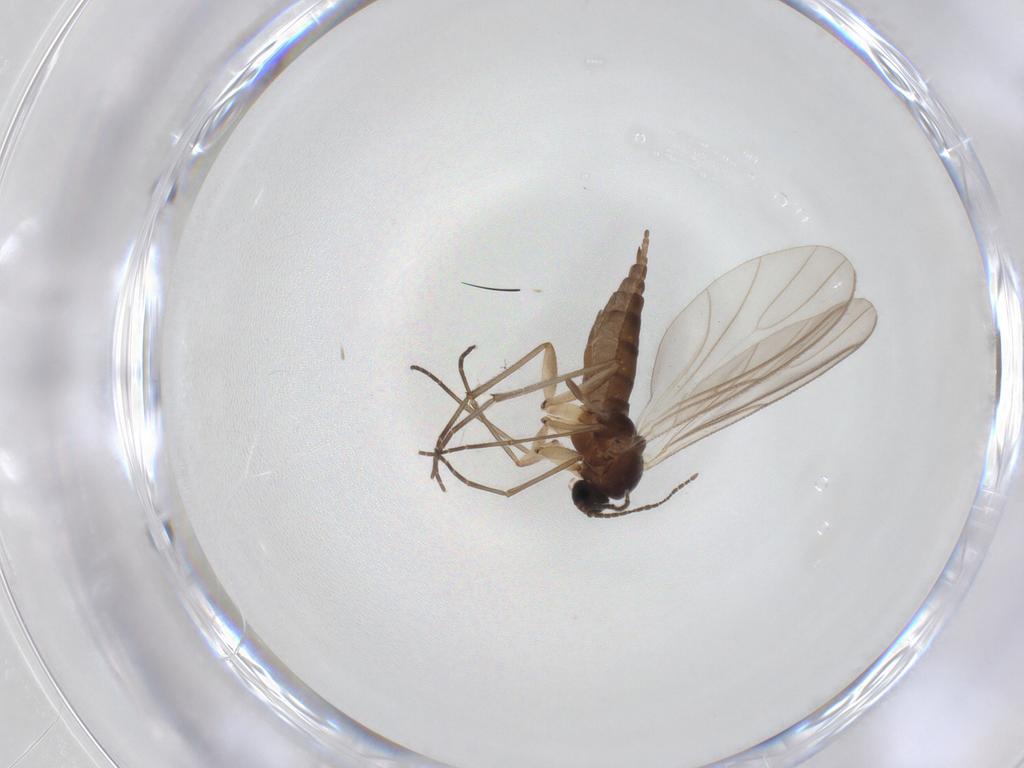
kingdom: Animalia
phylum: Arthropoda
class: Insecta
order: Diptera
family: Sciaridae
